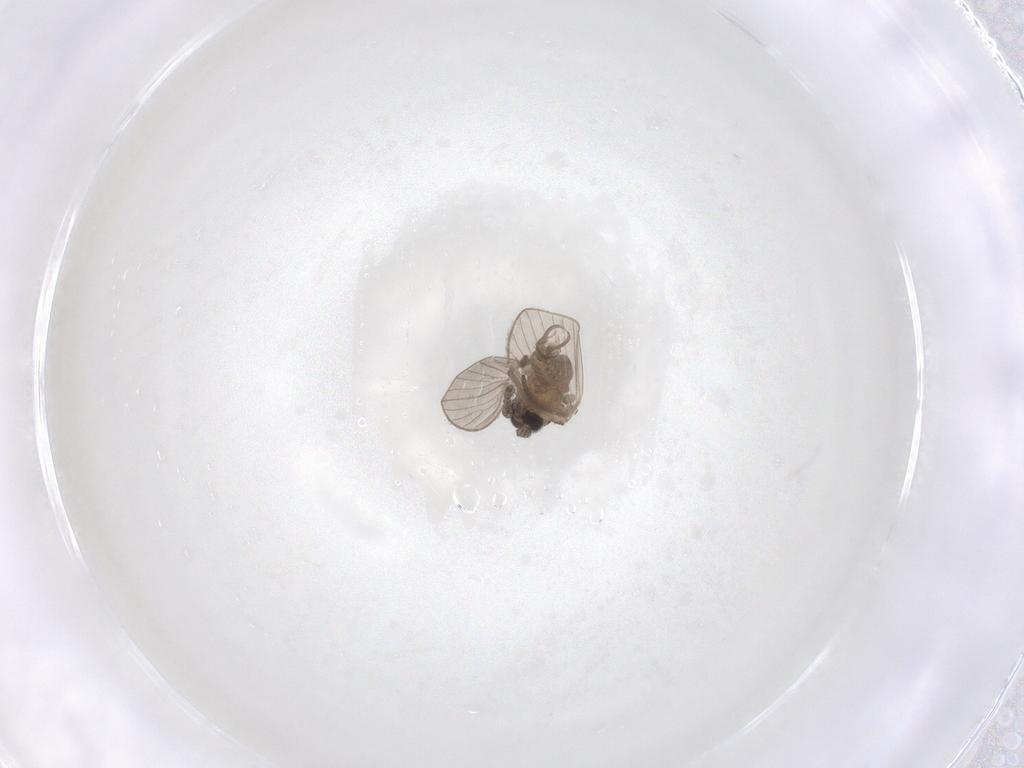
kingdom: Animalia
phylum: Arthropoda
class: Insecta
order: Diptera
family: Psychodidae
